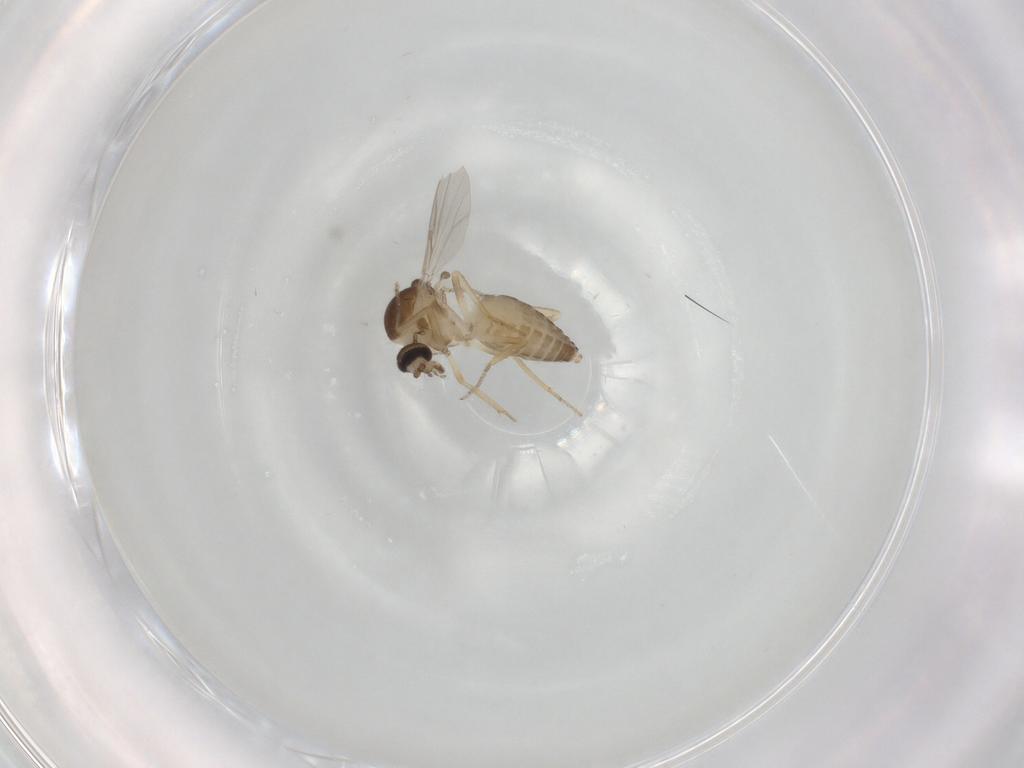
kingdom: Animalia
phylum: Arthropoda
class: Insecta
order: Diptera
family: Ceratopogonidae
